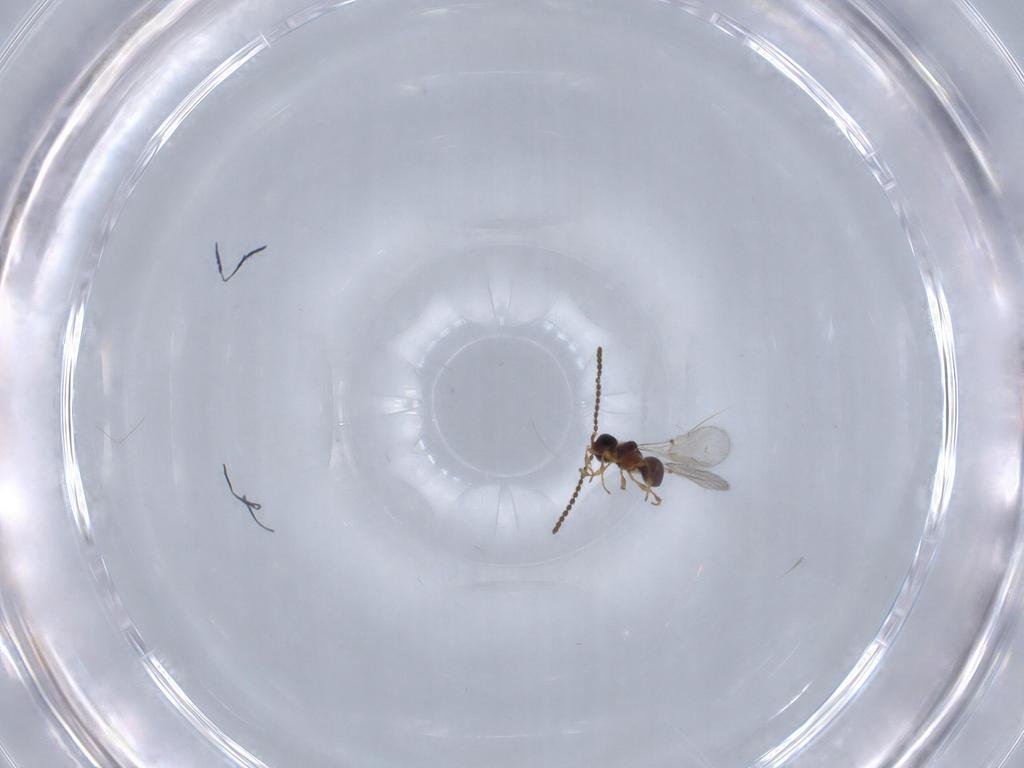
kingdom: Animalia
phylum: Arthropoda
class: Insecta
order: Hymenoptera
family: Diapriidae
